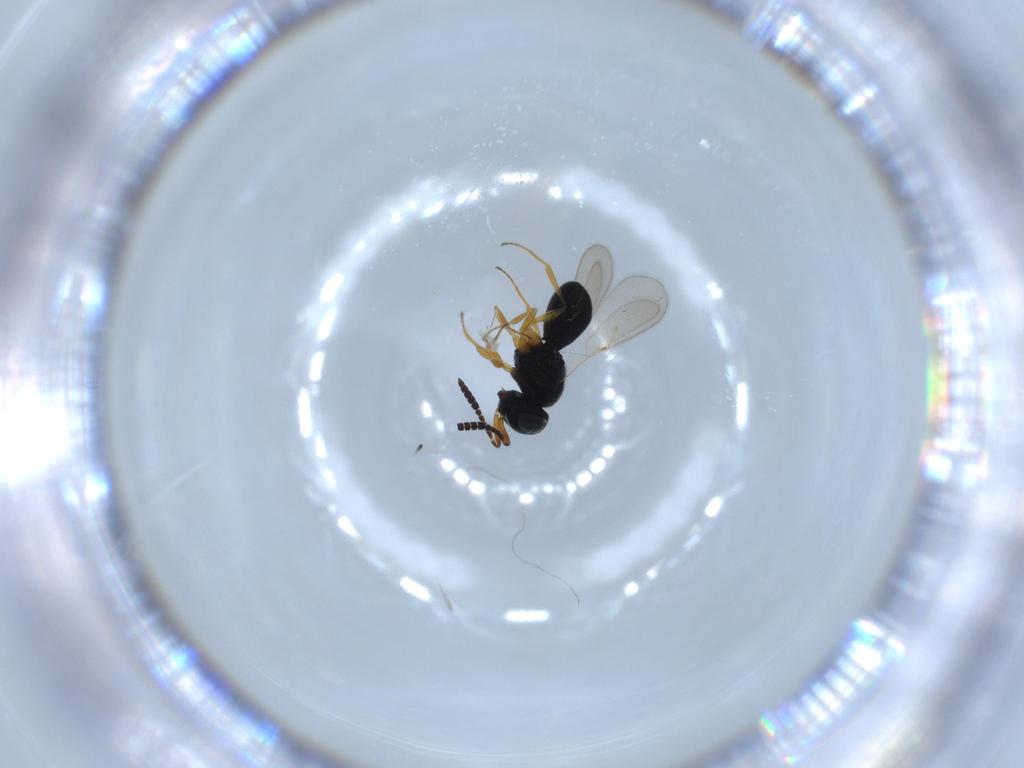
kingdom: Animalia
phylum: Arthropoda
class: Insecta
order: Hymenoptera
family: Scelionidae
